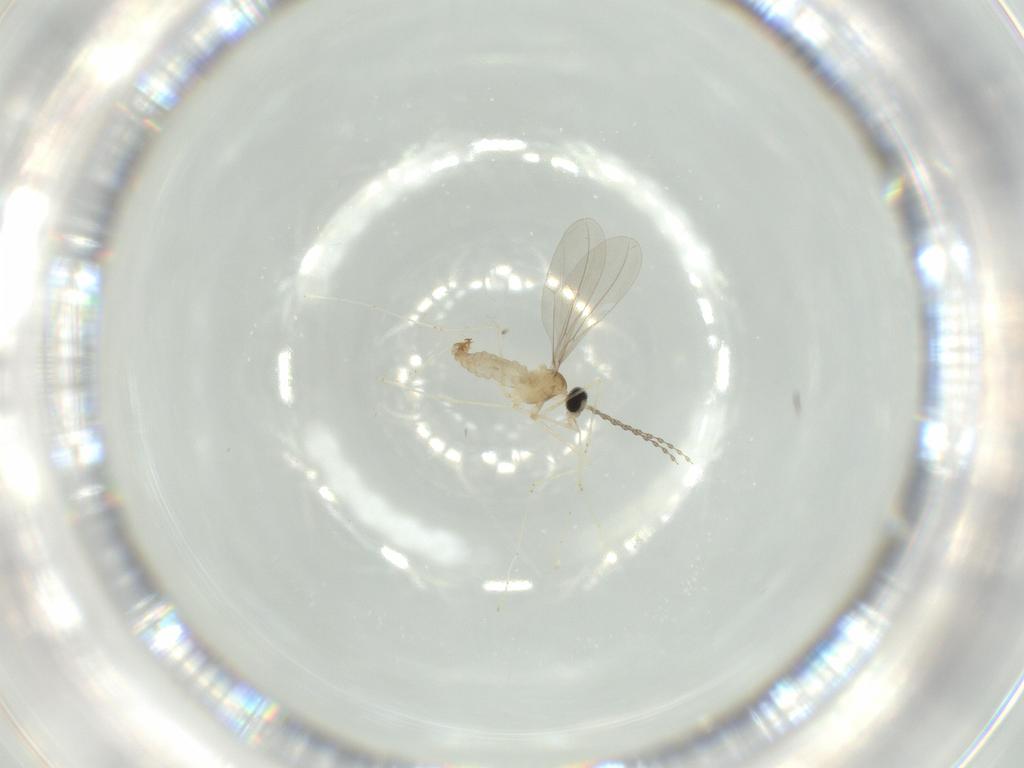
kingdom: Animalia
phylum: Arthropoda
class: Insecta
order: Diptera
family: Cecidomyiidae
